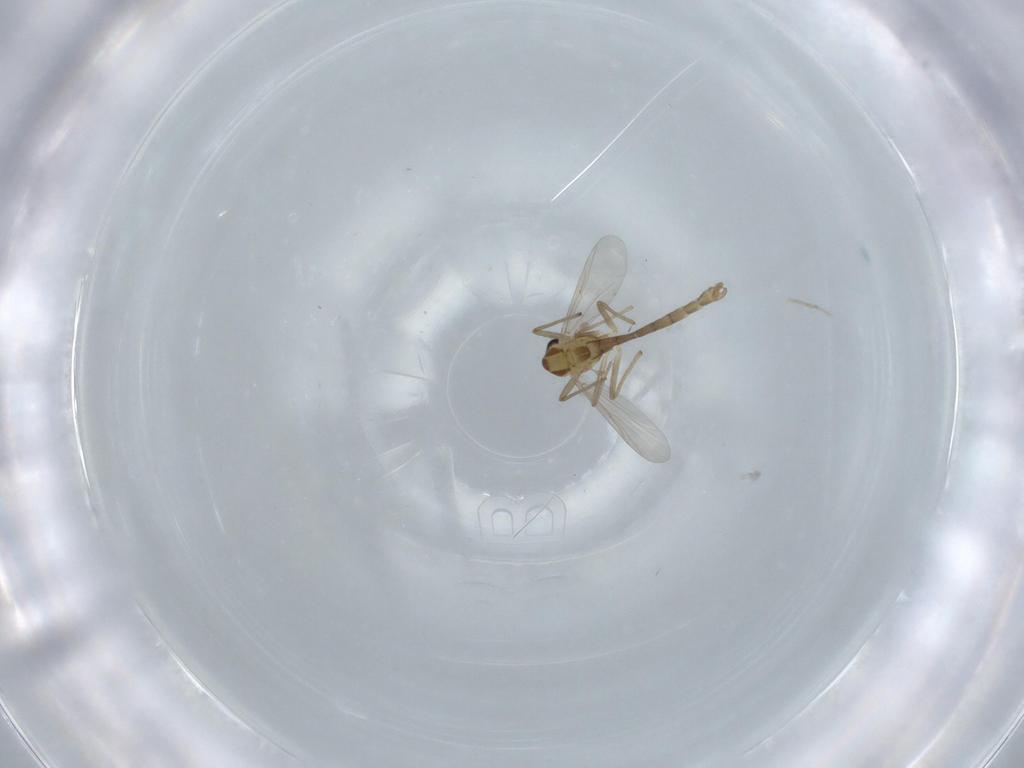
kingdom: Animalia
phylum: Arthropoda
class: Insecta
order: Diptera
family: Chironomidae
